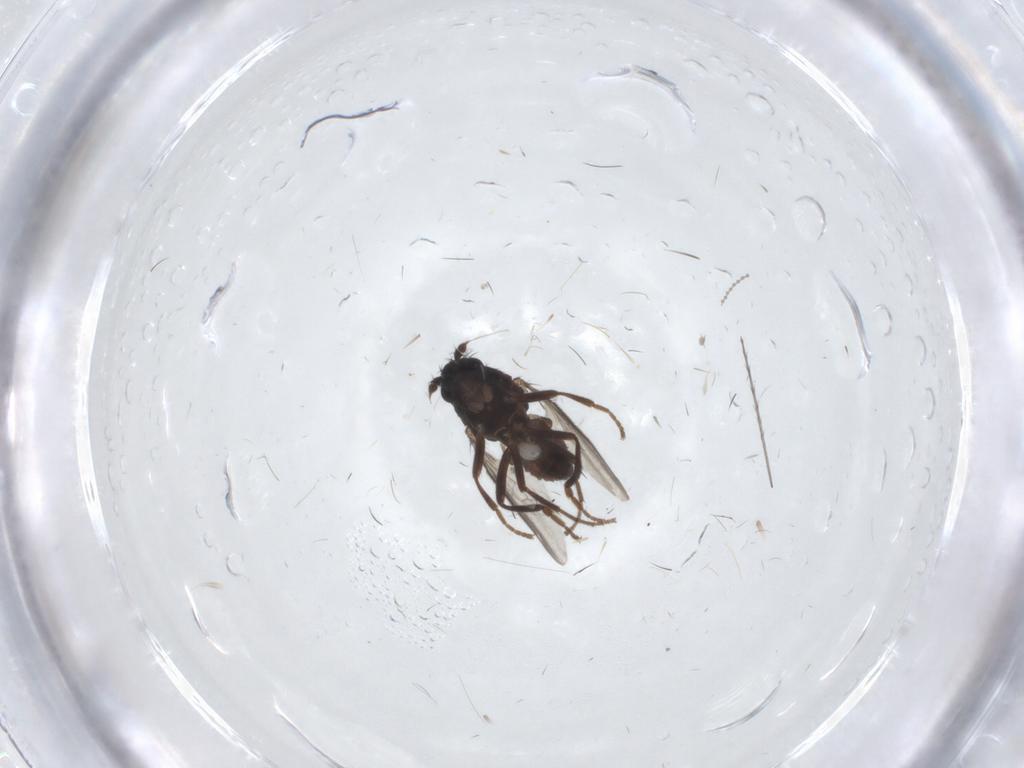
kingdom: Animalia
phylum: Arthropoda
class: Insecta
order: Diptera
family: Sphaeroceridae
